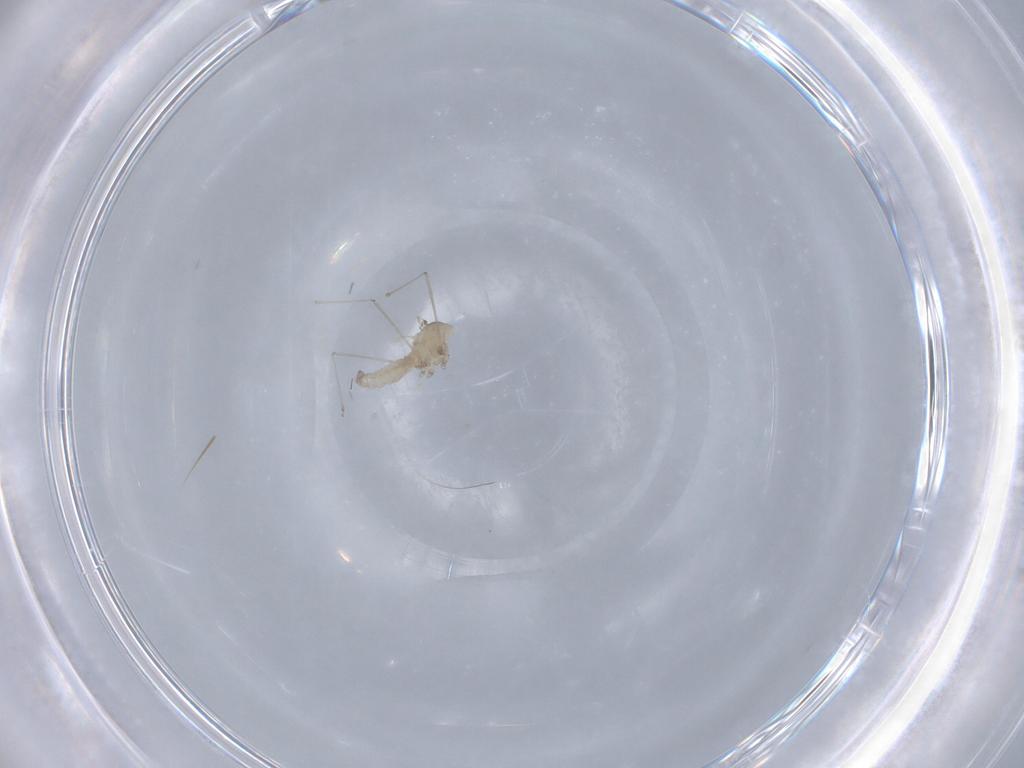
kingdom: Animalia
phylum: Arthropoda
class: Insecta
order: Diptera
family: Cecidomyiidae
